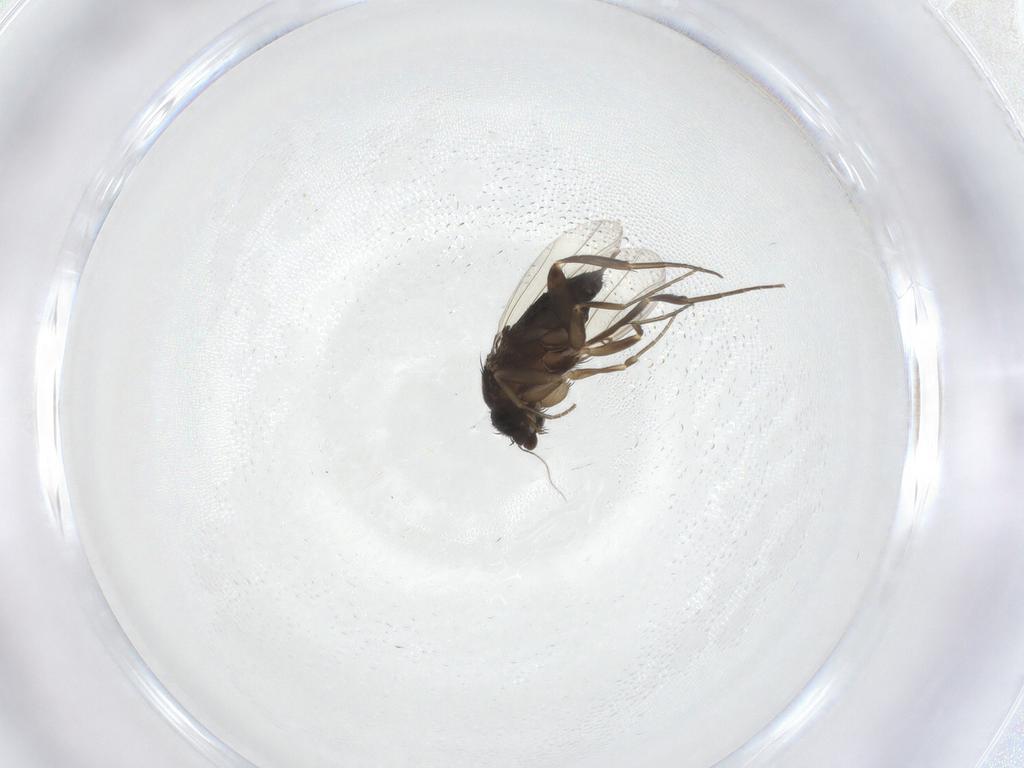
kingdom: Animalia
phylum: Arthropoda
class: Insecta
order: Diptera
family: Phoridae
